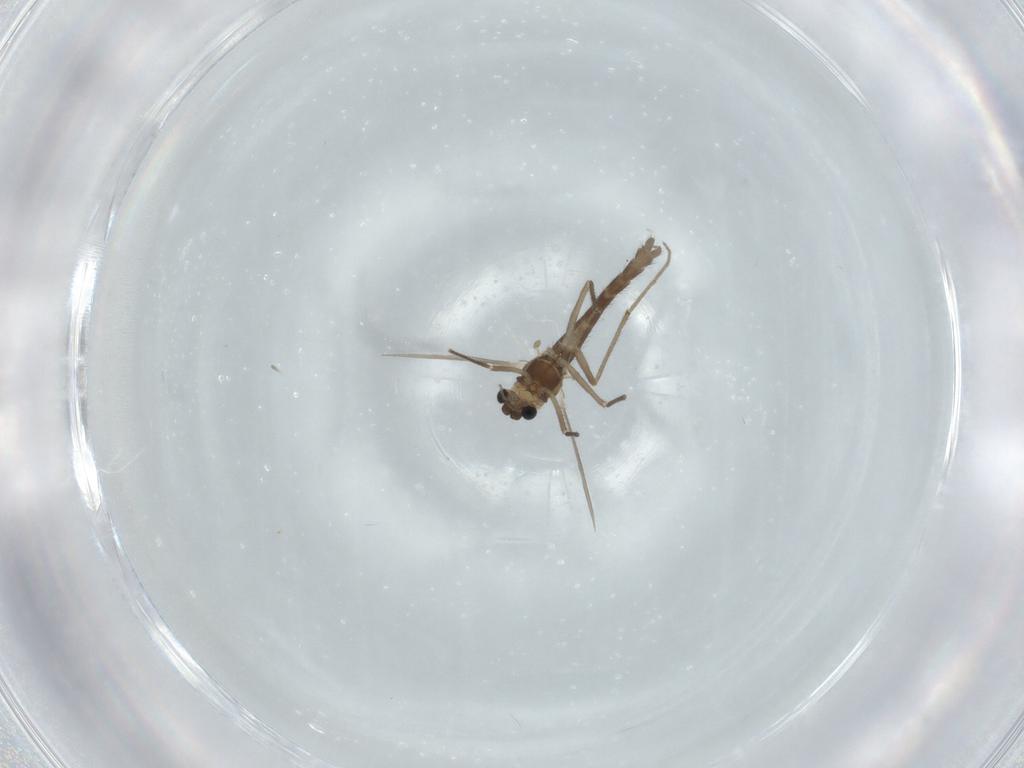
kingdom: Animalia
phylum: Arthropoda
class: Insecta
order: Diptera
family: Chironomidae
